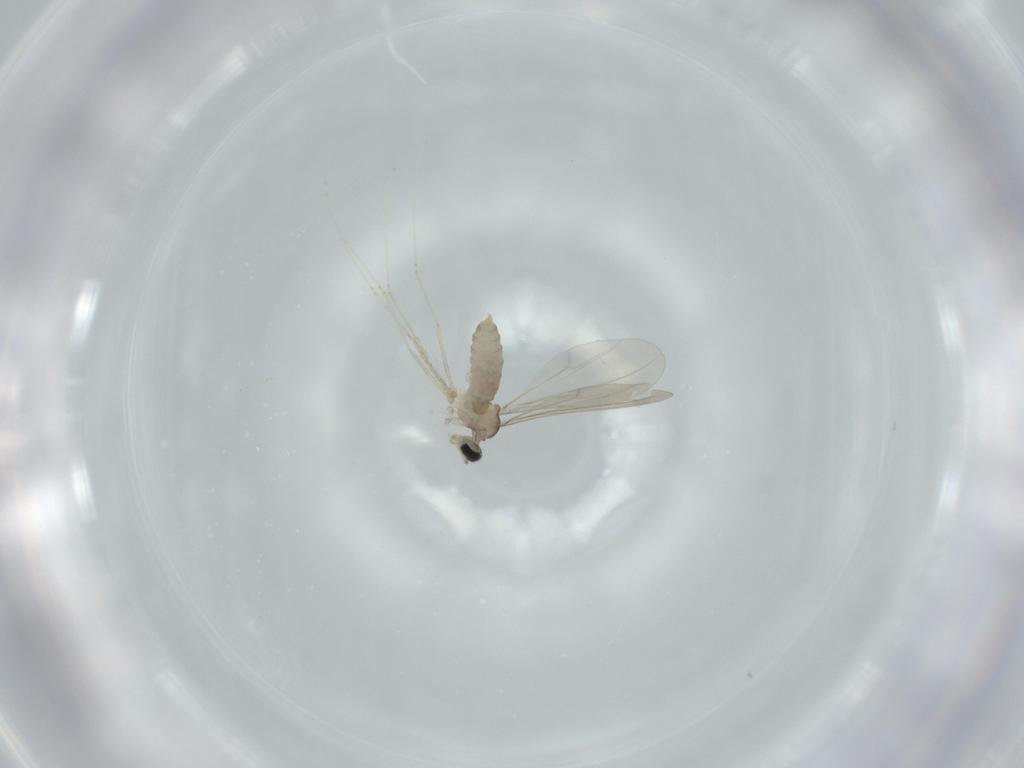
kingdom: Animalia
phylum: Arthropoda
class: Insecta
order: Diptera
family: Cecidomyiidae
